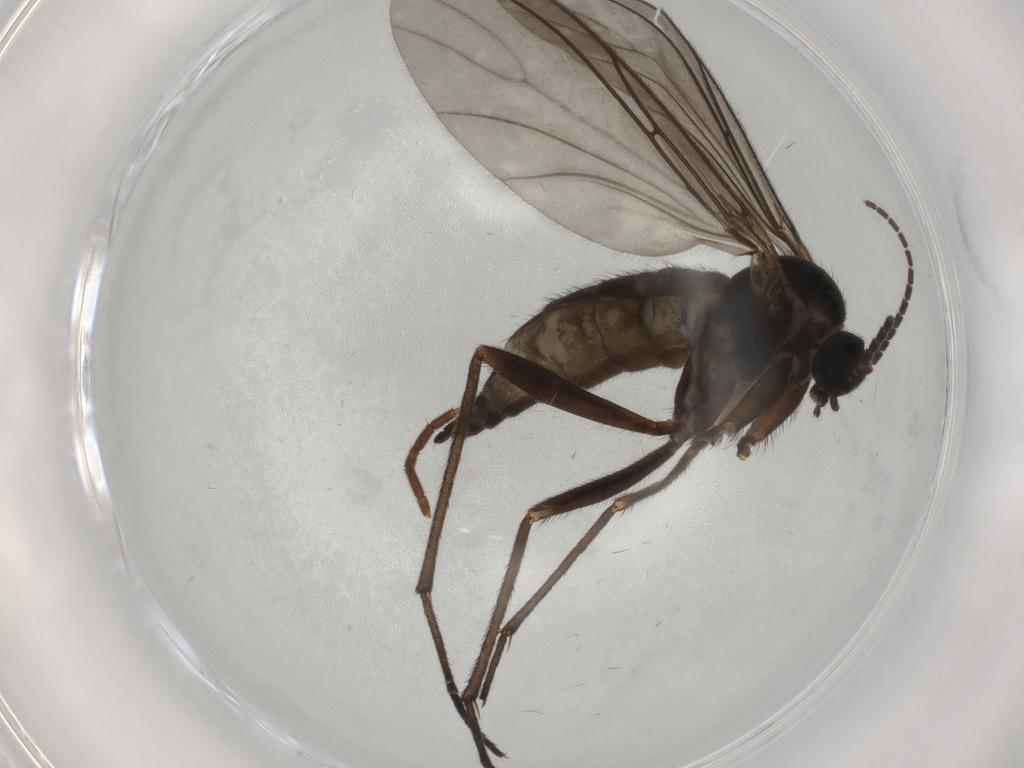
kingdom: Animalia
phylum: Arthropoda
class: Insecta
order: Diptera
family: Sciaridae
